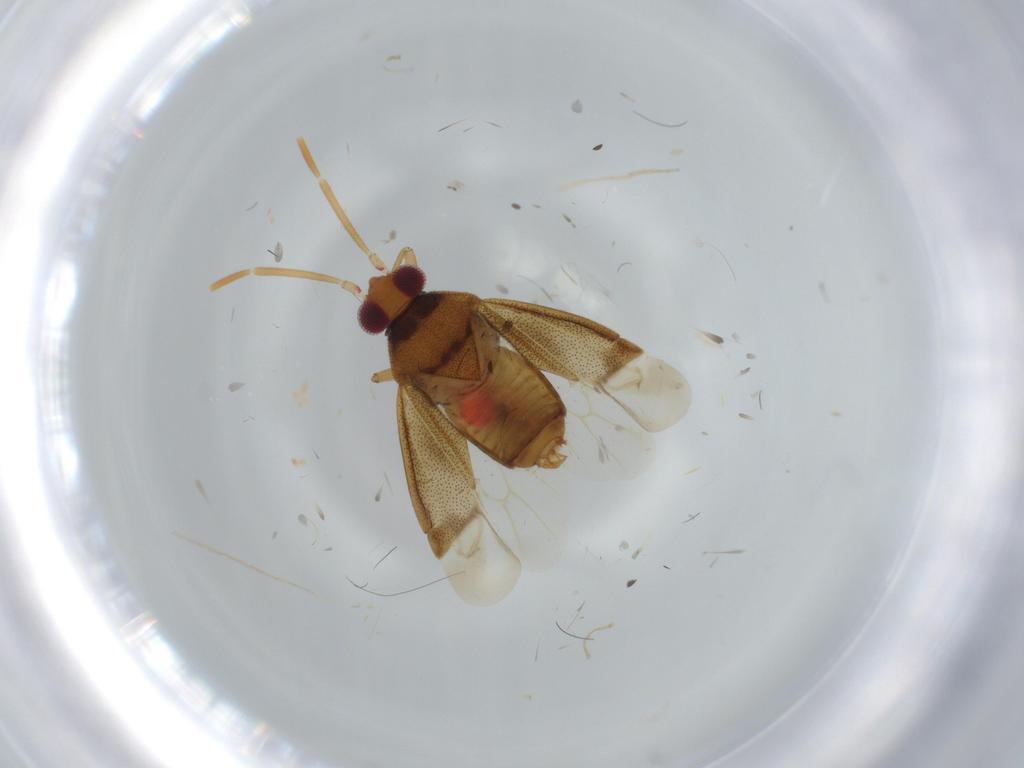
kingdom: Animalia
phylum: Arthropoda
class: Insecta
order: Hemiptera
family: Miridae
